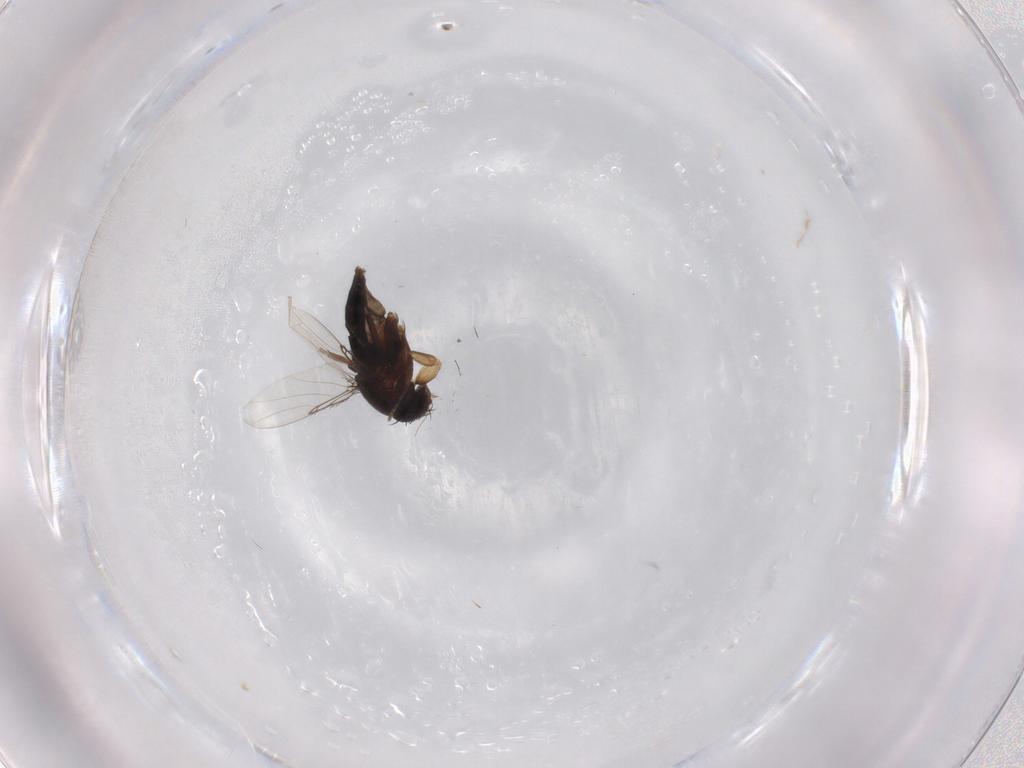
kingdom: Animalia
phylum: Arthropoda
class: Insecta
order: Diptera
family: Phoridae
